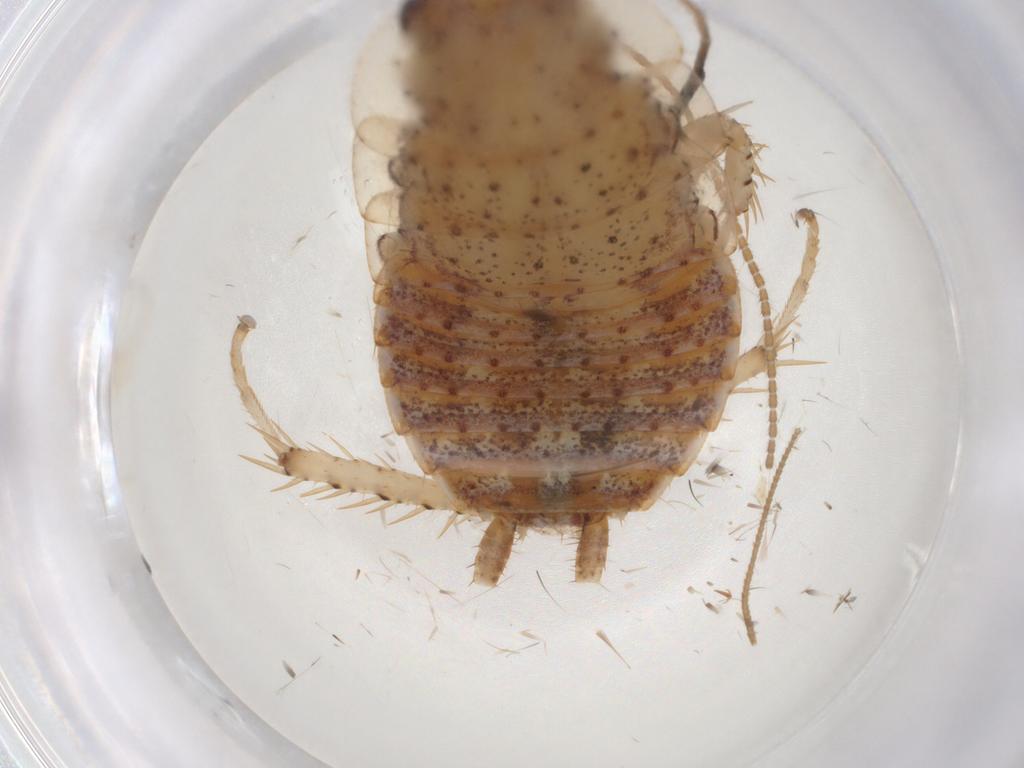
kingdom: Animalia
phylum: Arthropoda
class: Insecta
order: Blattodea
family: Blaberidae
